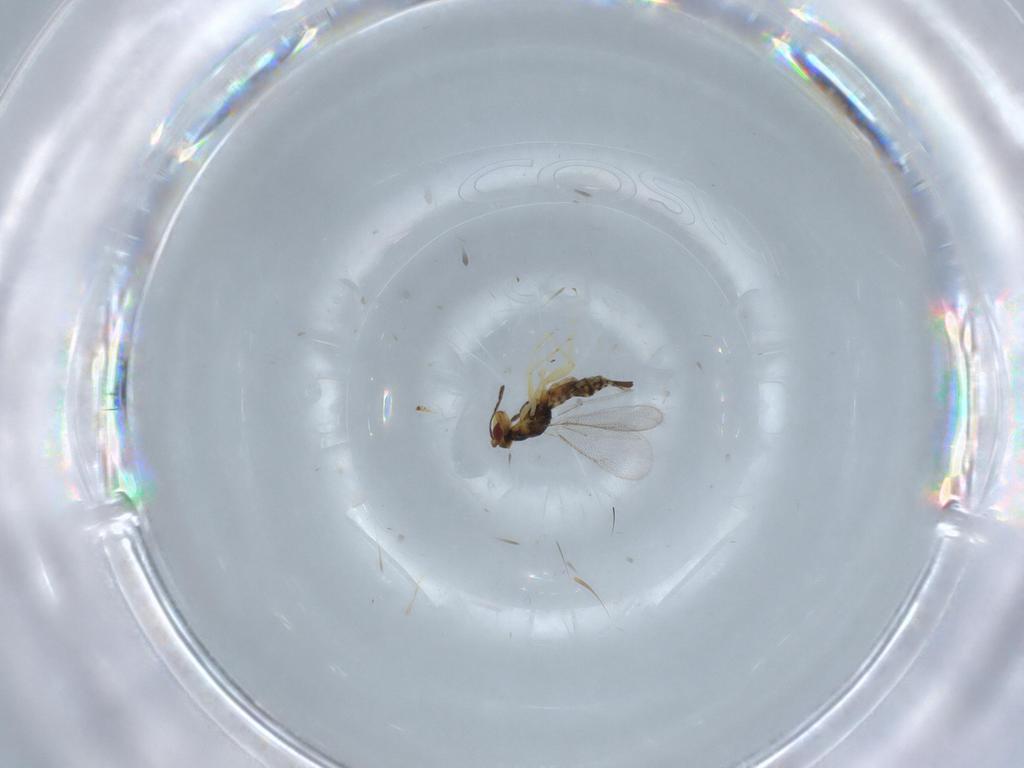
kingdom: Animalia
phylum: Arthropoda
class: Insecta
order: Hymenoptera
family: Eulophidae
